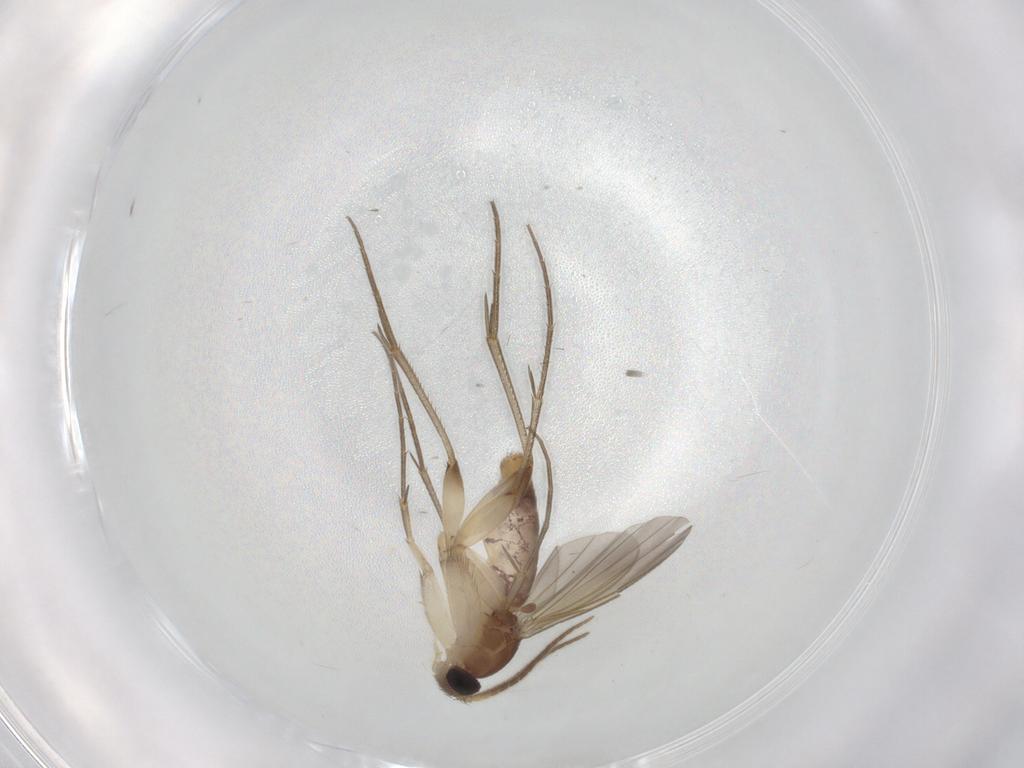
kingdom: Animalia
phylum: Arthropoda
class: Insecta
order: Diptera
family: Mycetophilidae
